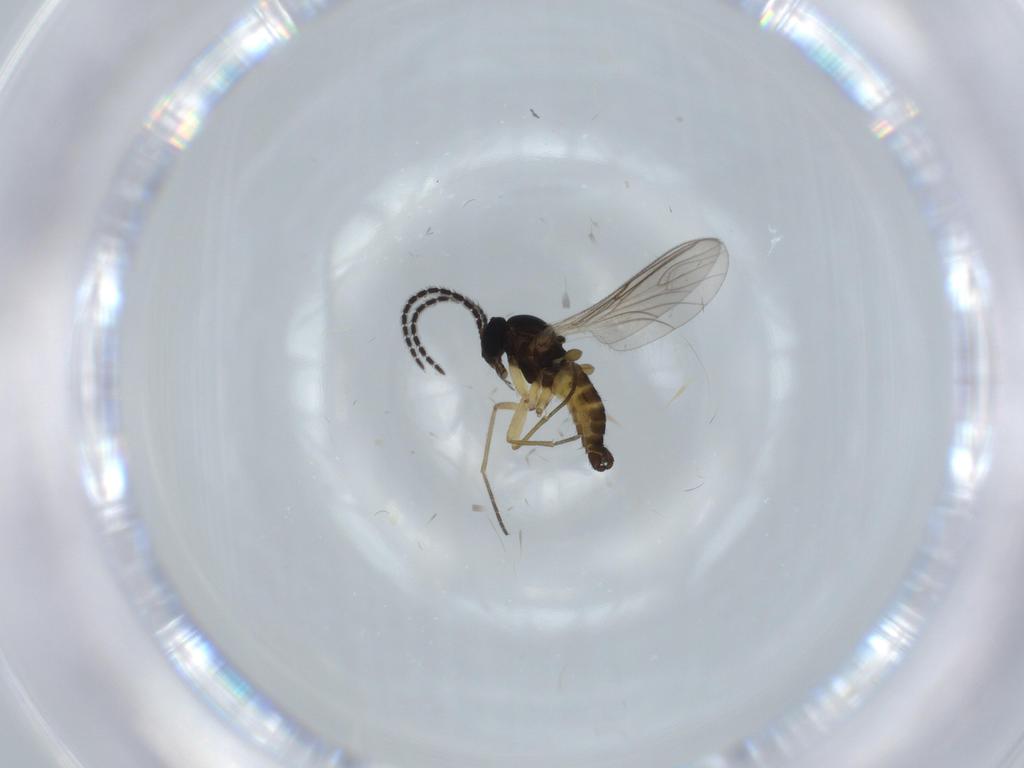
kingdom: Animalia
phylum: Arthropoda
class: Insecta
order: Diptera
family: Sciaridae
